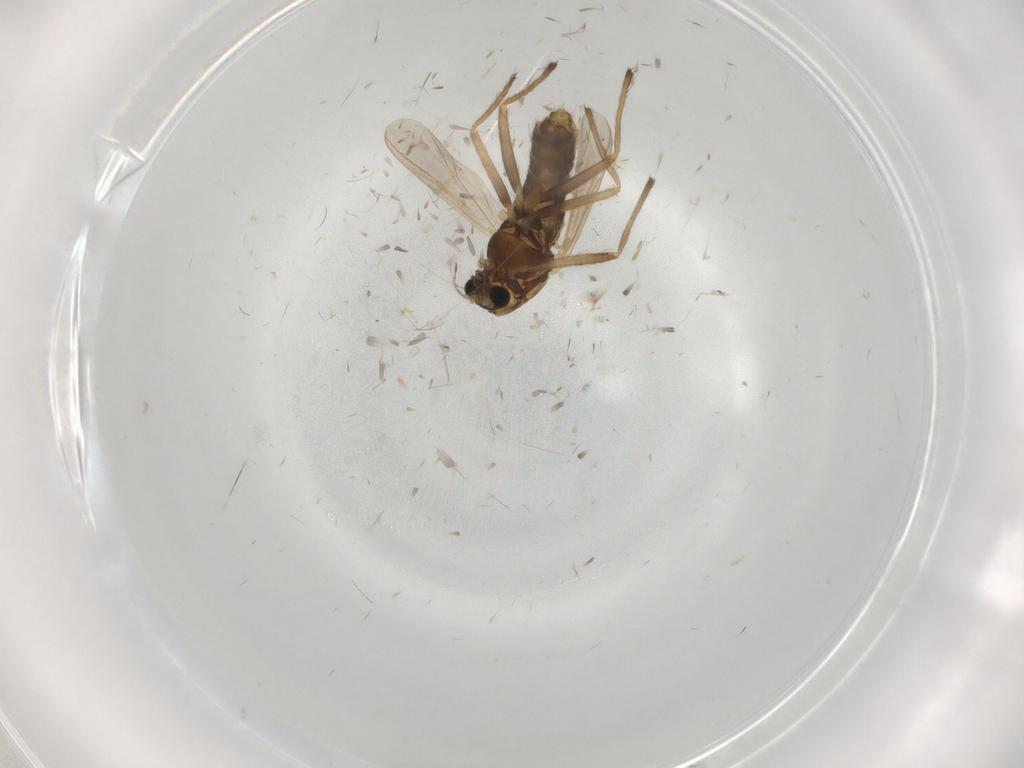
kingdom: Animalia
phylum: Arthropoda
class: Insecta
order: Diptera
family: Chironomidae
